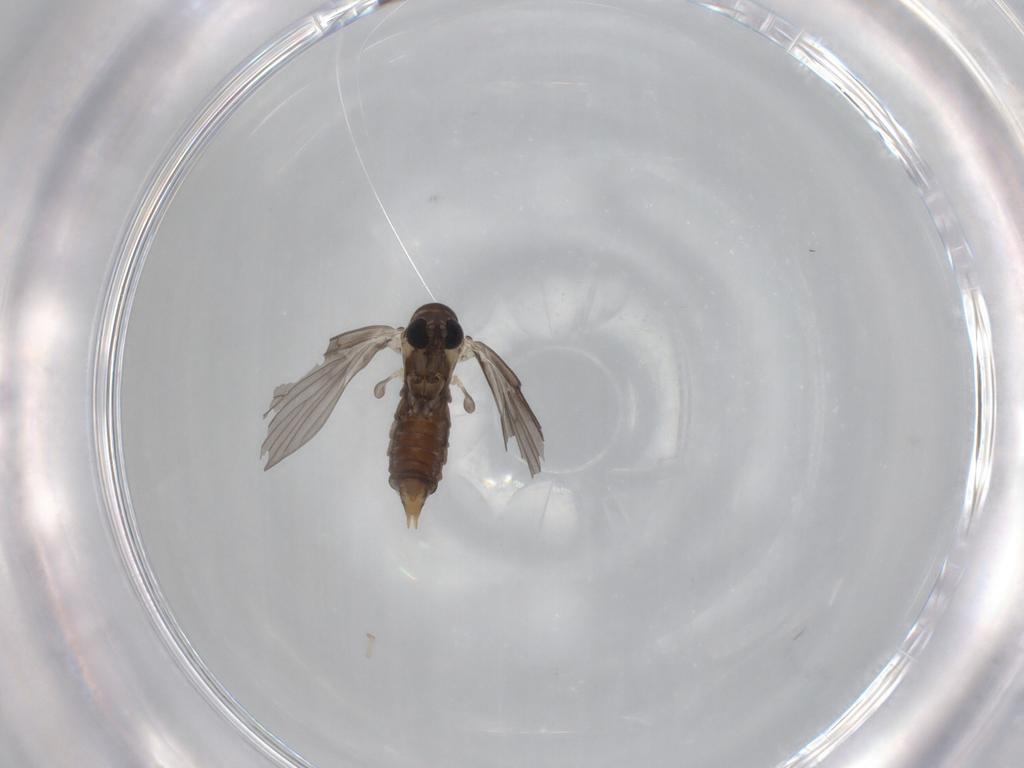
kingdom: Animalia
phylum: Arthropoda
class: Insecta
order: Diptera
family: Psychodidae
